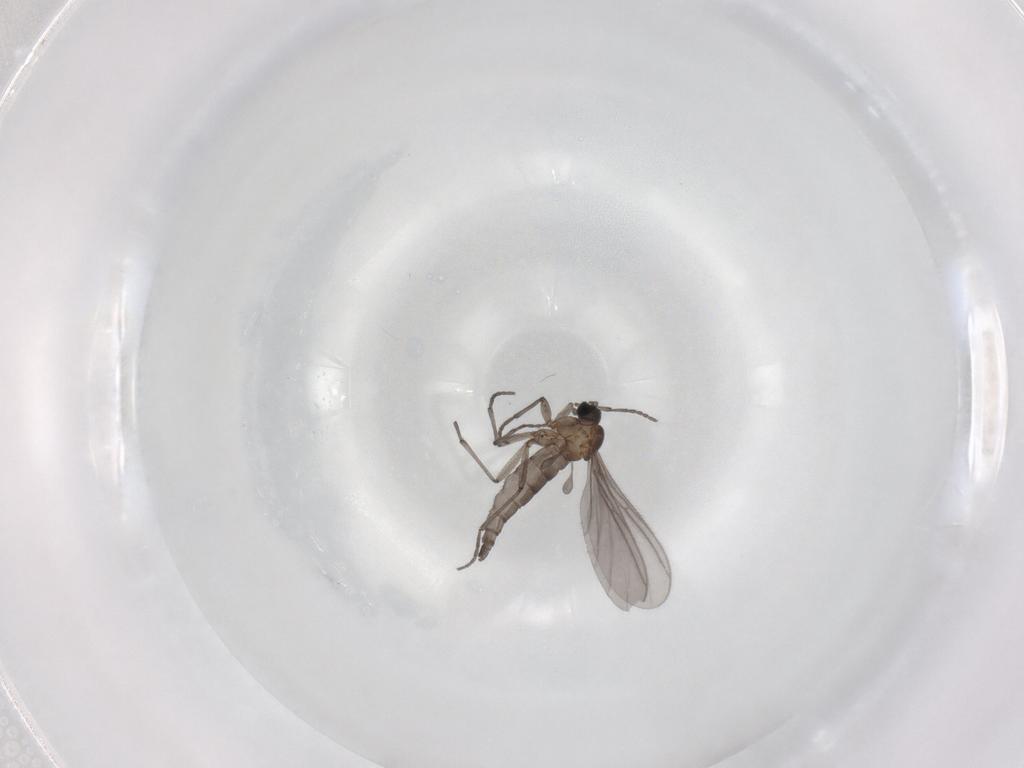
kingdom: Animalia
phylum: Arthropoda
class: Insecta
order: Diptera
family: Sciaridae
